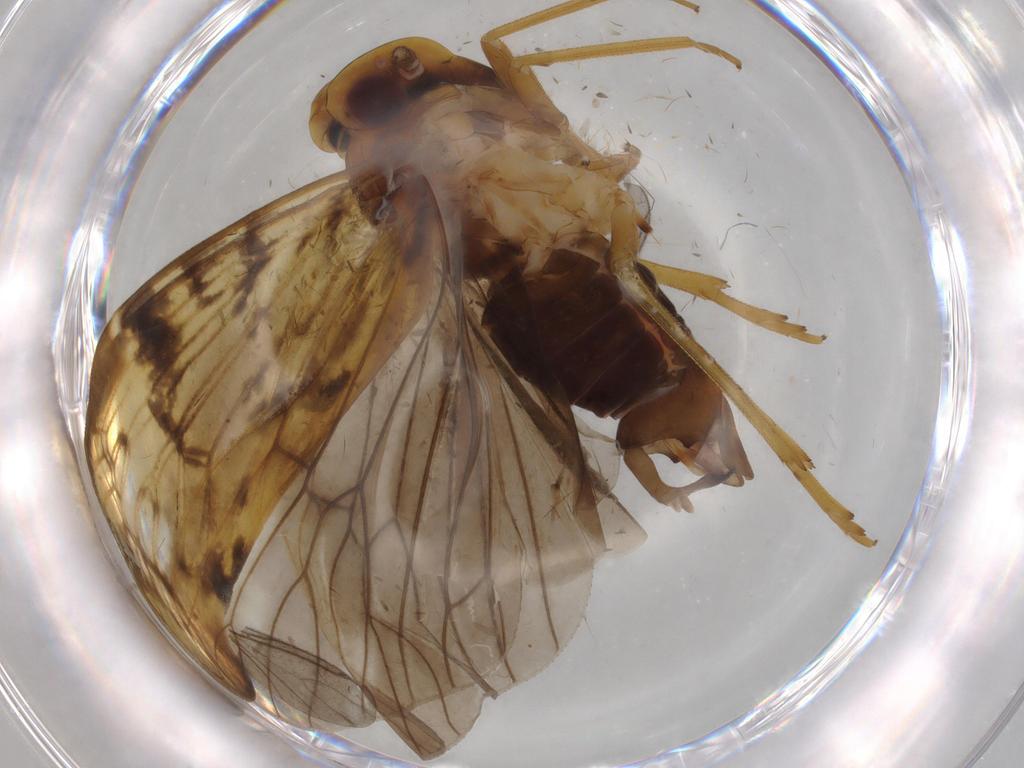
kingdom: Animalia
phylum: Arthropoda
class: Insecta
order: Hemiptera
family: Cixiidae
